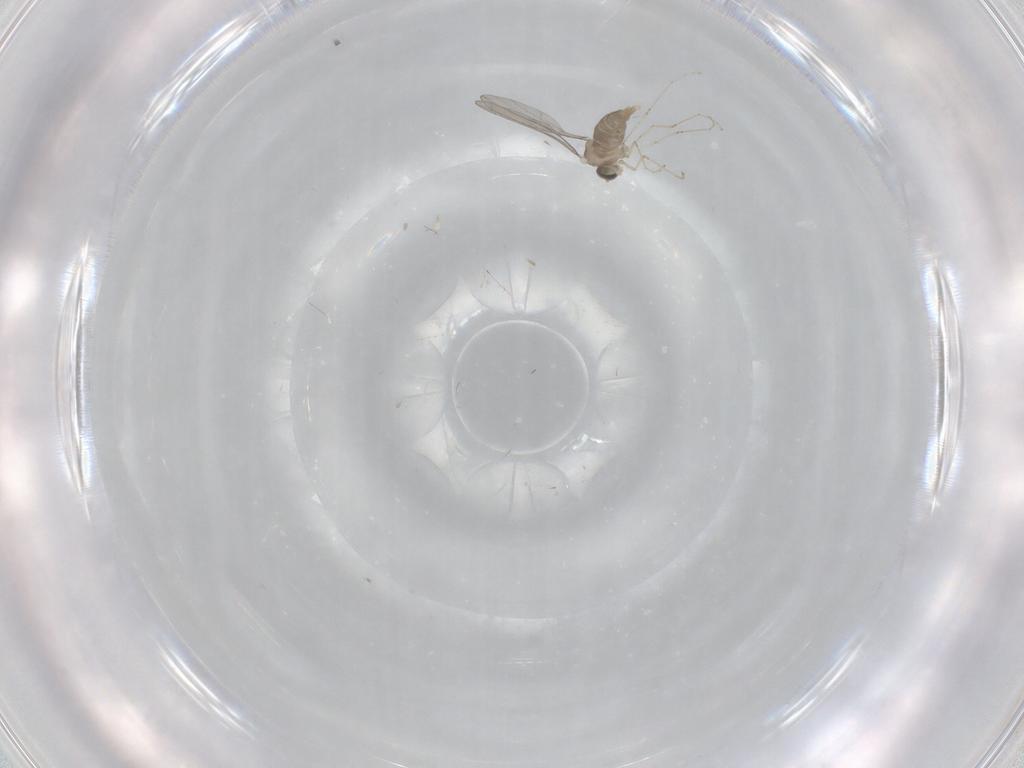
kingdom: Animalia
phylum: Arthropoda
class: Insecta
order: Diptera
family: Cecidomyiidae
